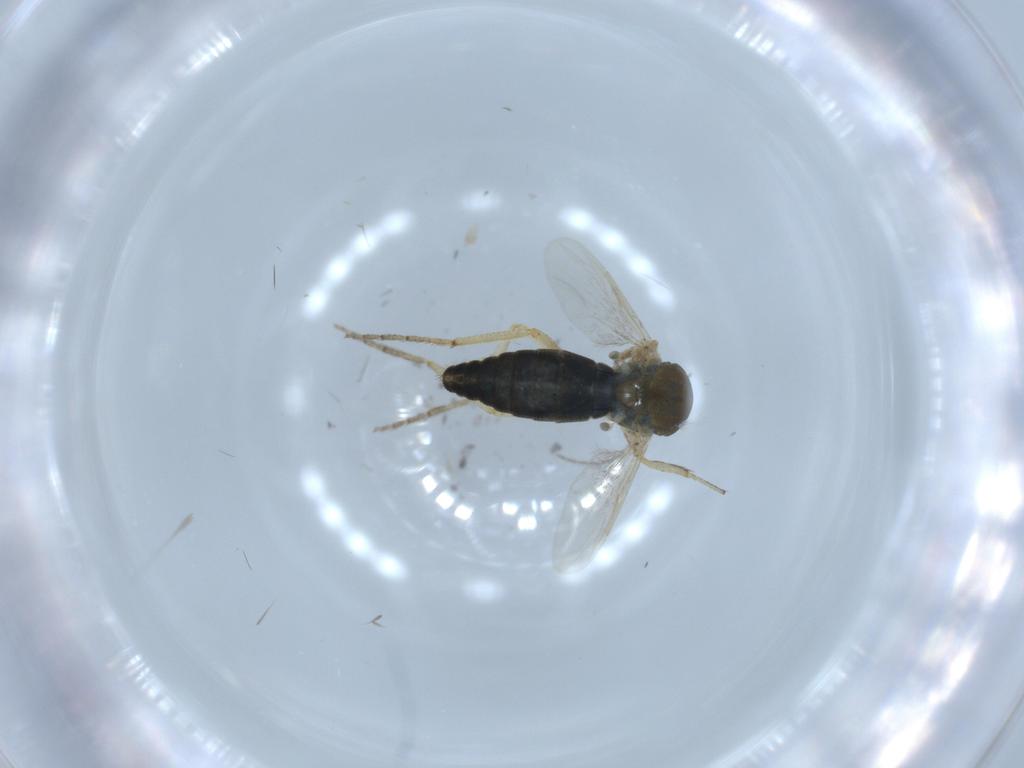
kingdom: Animalia
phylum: Arthropoda
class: Insecta
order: Diptera
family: Ceratopogonidae
